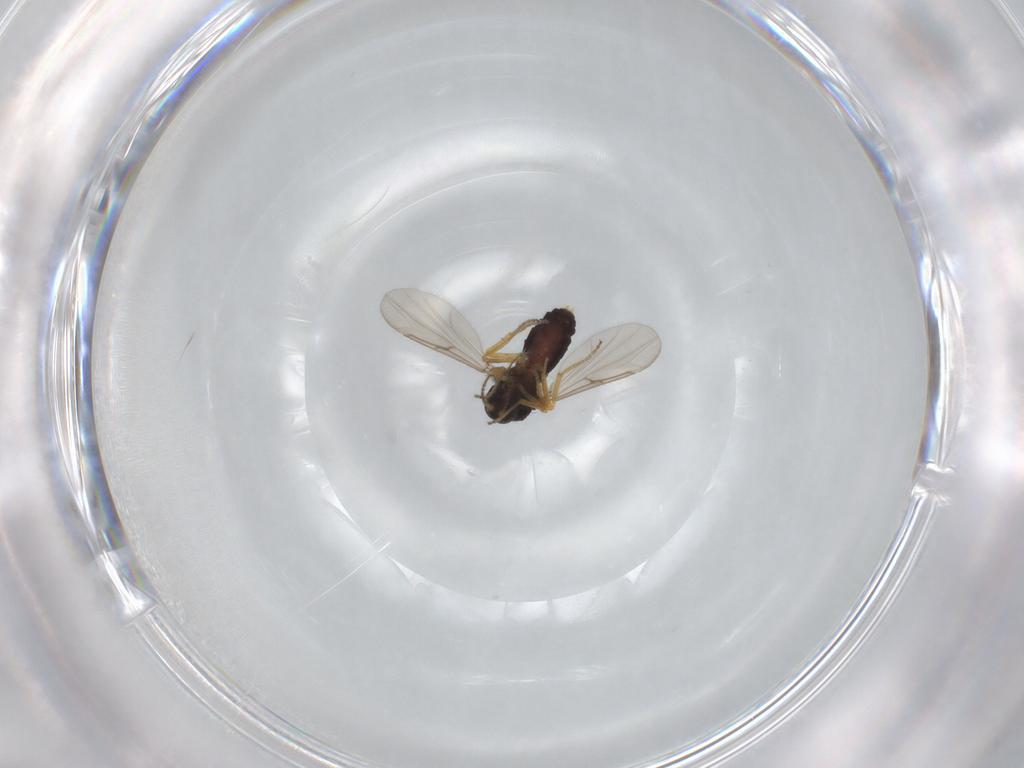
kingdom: Animalia
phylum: Arthropoda
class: Insecta
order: Diptera
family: Ceratopogonidae
